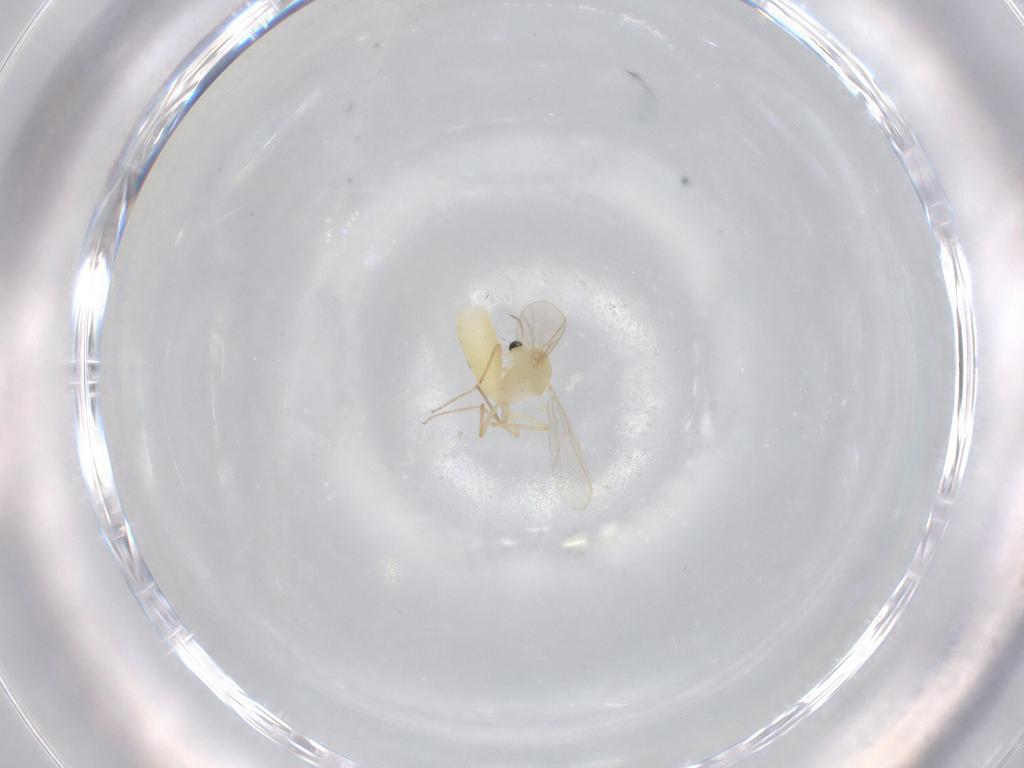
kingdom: Animalia
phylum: Arthropoda
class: Insecta
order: Diptera
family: Chironomidae
